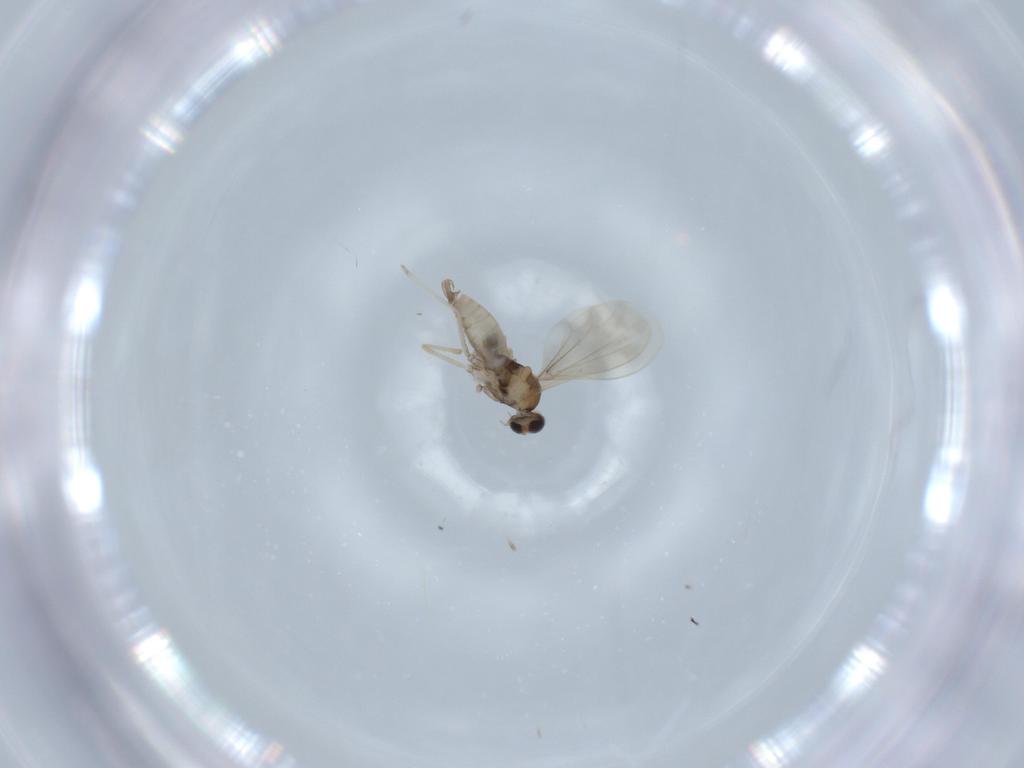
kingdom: Animalia
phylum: Arthropoda
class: Insecta
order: Diptera
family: Cecidomyiidae
